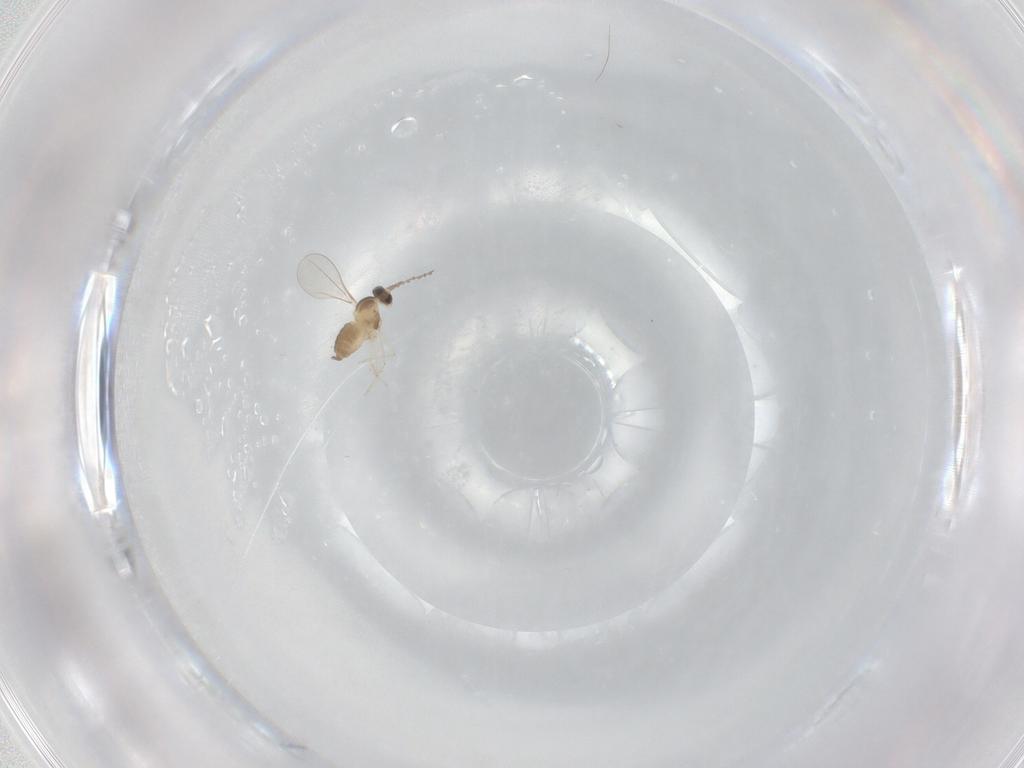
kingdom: Animalia
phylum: Arthropoda
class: Insecta
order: Diptera
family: Cecidomyiidae
